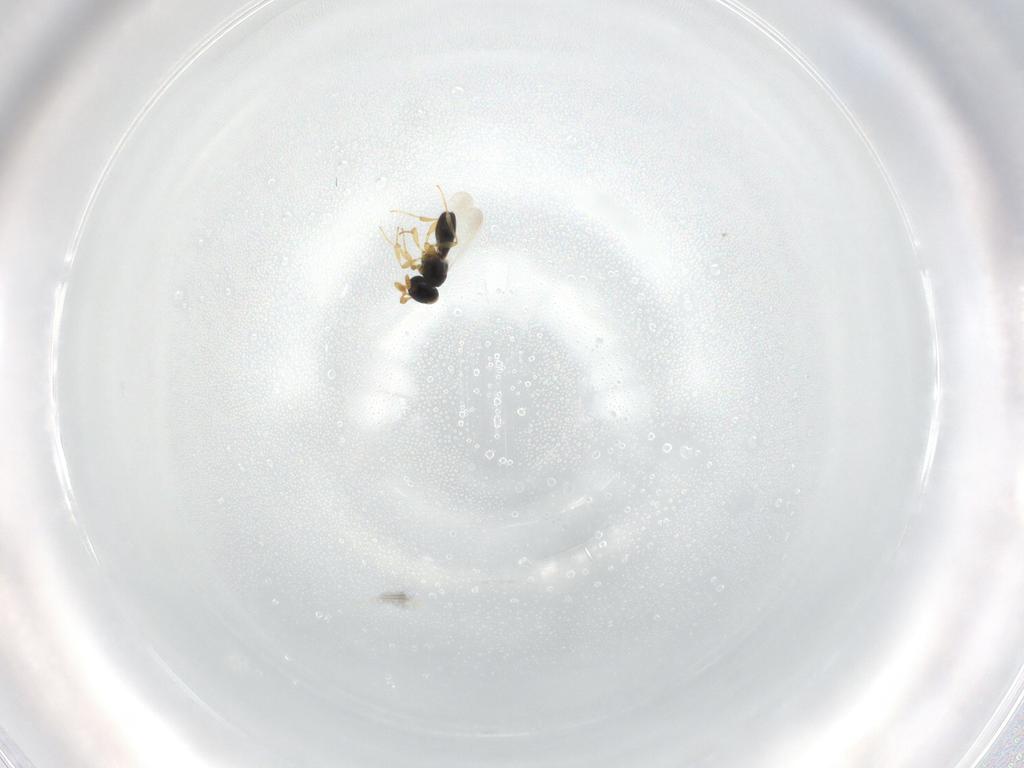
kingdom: Animalia
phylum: Arthropoda
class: Insecta
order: Hymenoptera
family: Platygastridae
